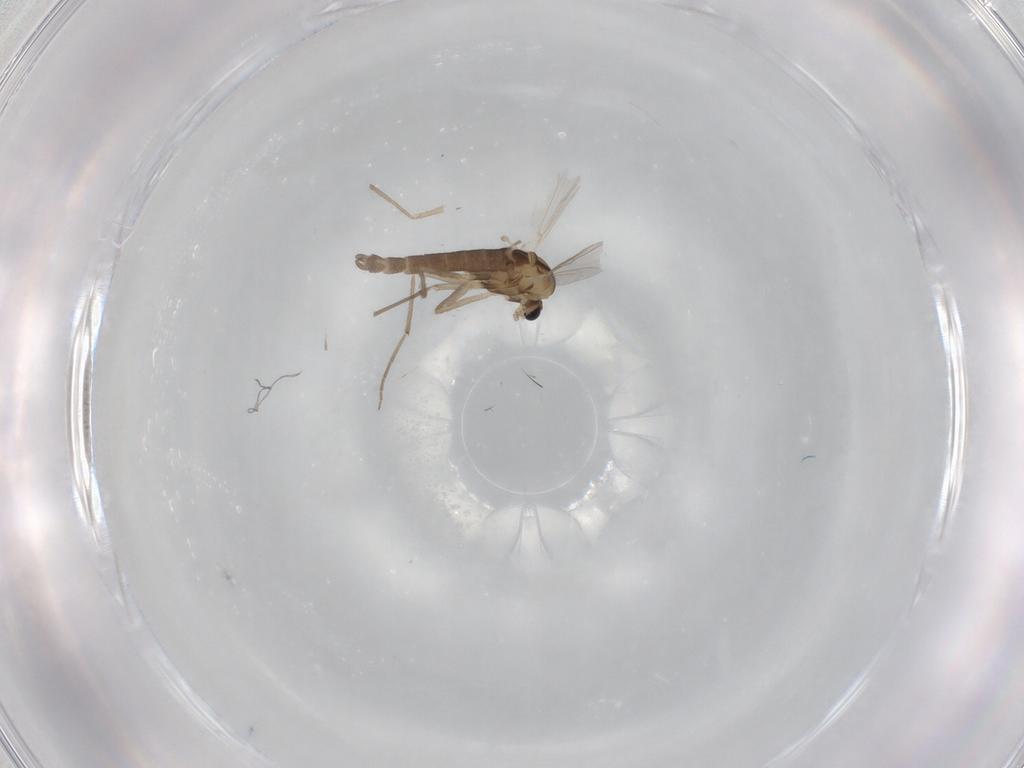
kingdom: Animalia
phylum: Arthropoda
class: Insecta
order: Diptera
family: Chironomidae
